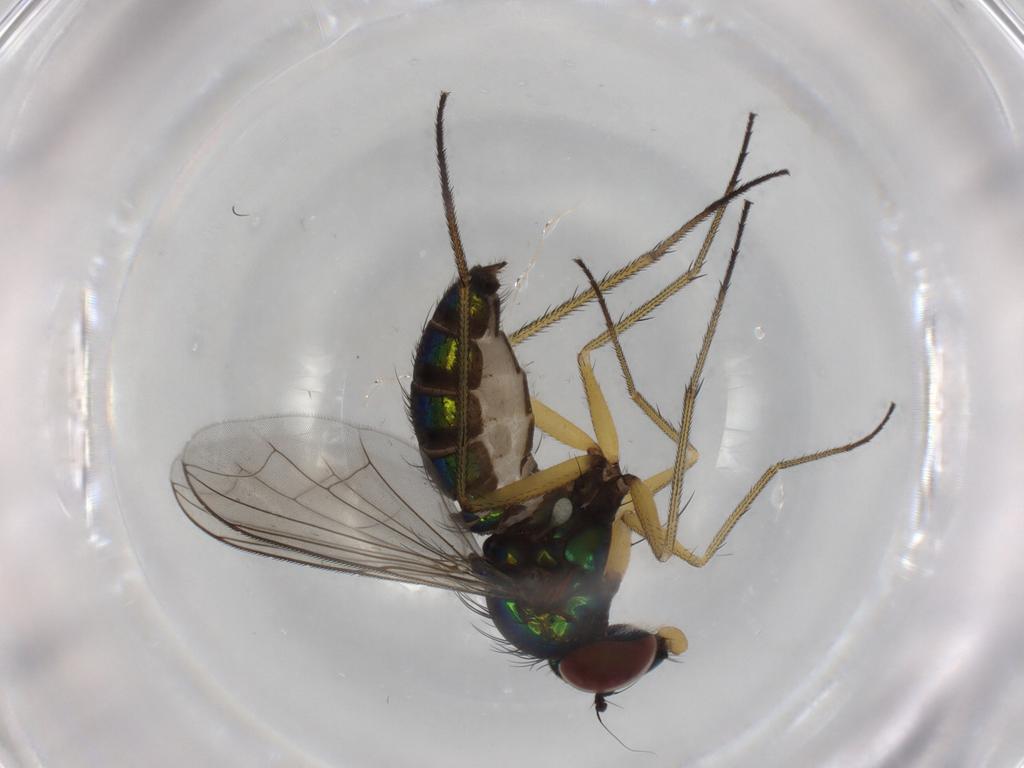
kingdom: Animalia
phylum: Arthropoda
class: Insecta
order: Diptera
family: Dolichopodidae
